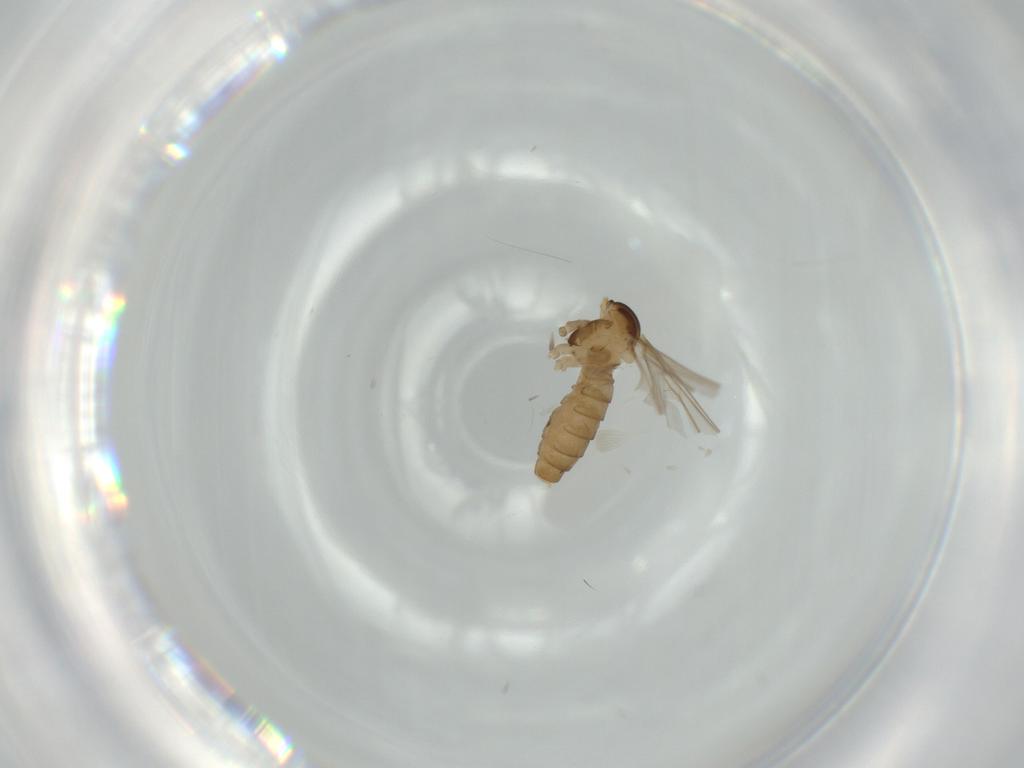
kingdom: Animalia
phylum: Arthropoda
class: Insecta
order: Diptera
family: Cecidomyiidae
